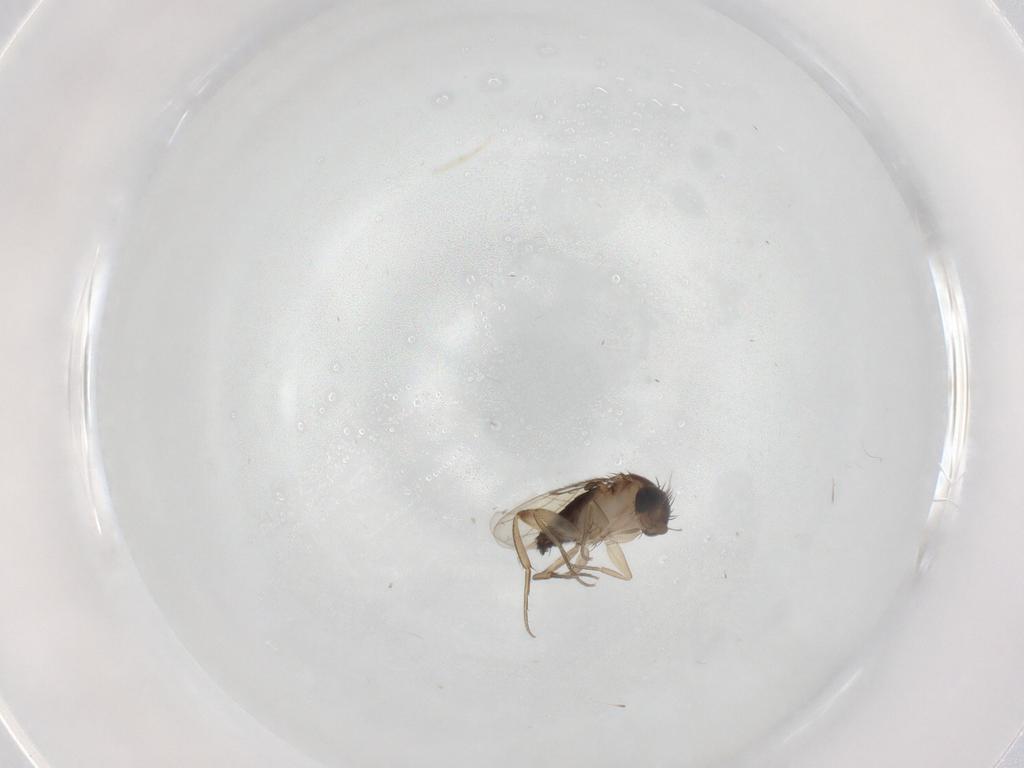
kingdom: Animalia
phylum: Arthropoda
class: Insecta
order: Diptera
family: Phoridae
